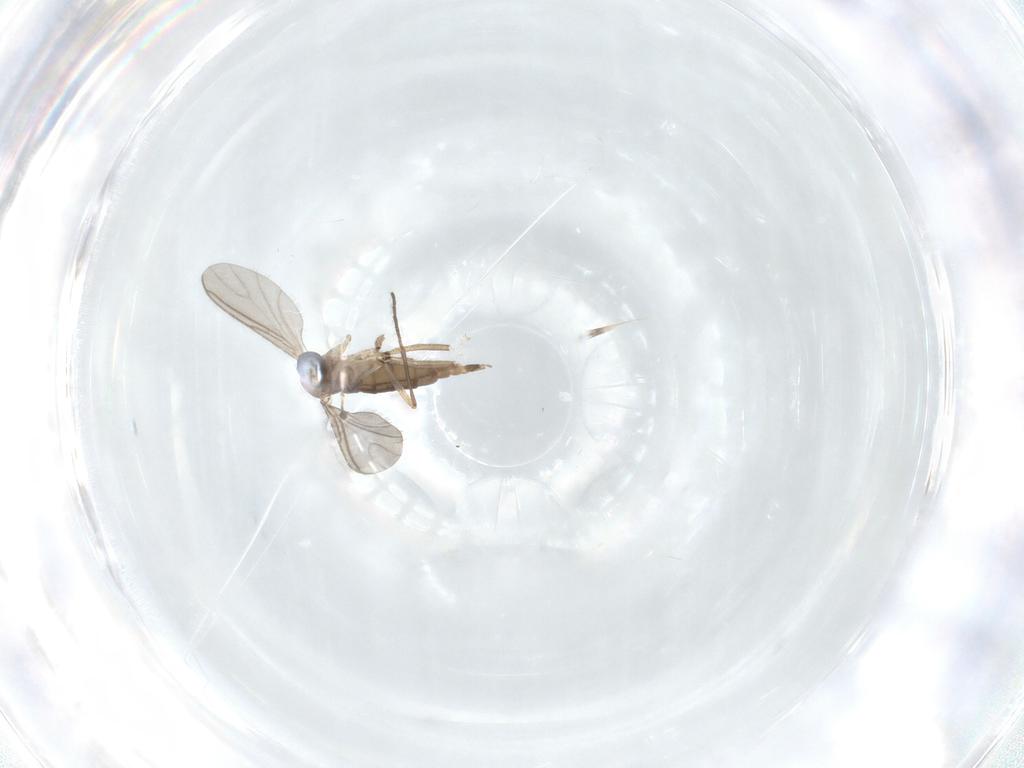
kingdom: Animalia
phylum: Arthropoda
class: Insecta
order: Diptera
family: Sciaridae
